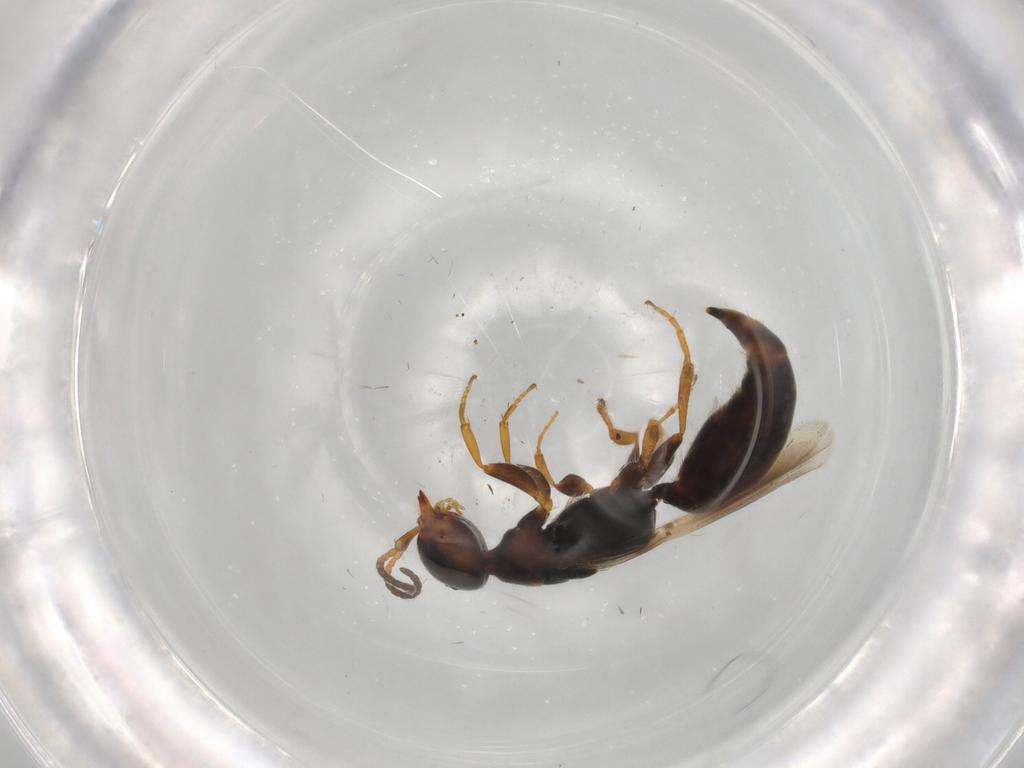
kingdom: Animalia
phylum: Arthropoda
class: Insecta
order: Hymenoptera
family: Bethylidae
